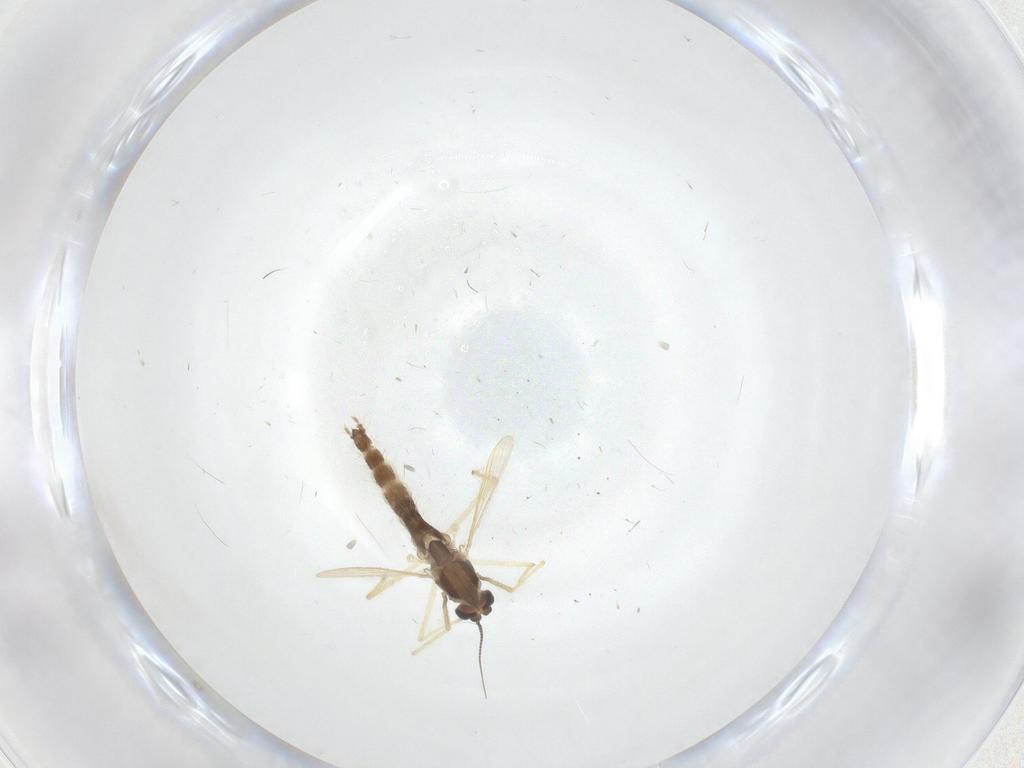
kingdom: Animalia
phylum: Arthropoda
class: Insecta
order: Diptera
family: Chironomidae
